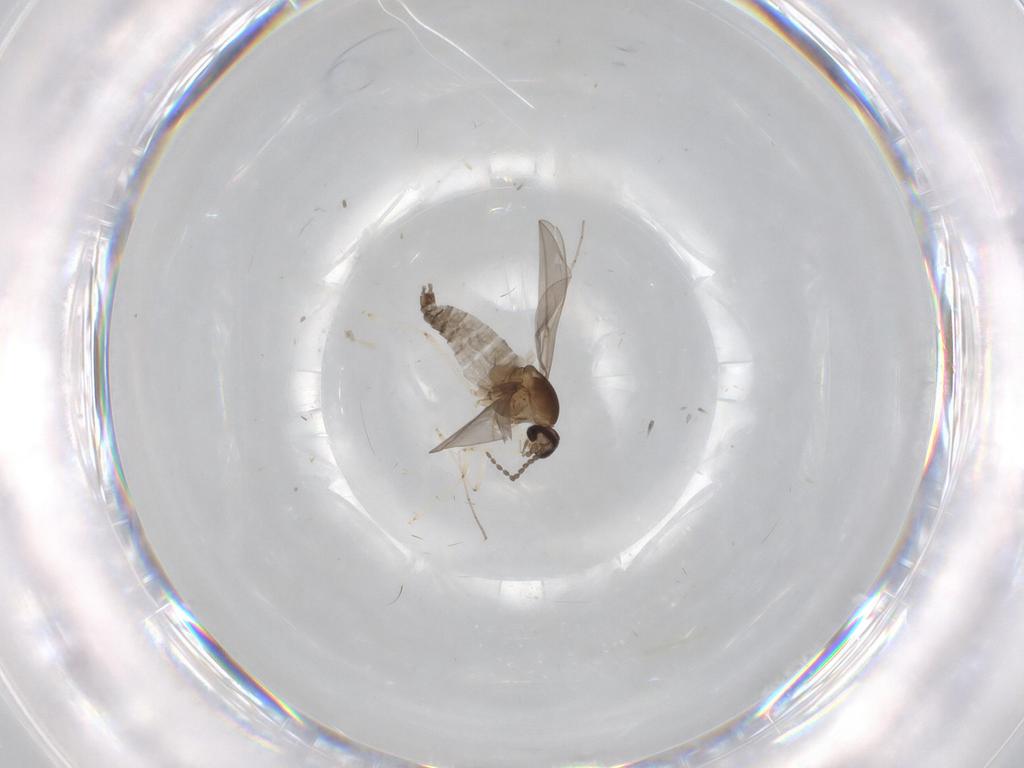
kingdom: Animalia
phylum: Arthropoda
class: Insecta
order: Diptera
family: Cecidomyiidae
